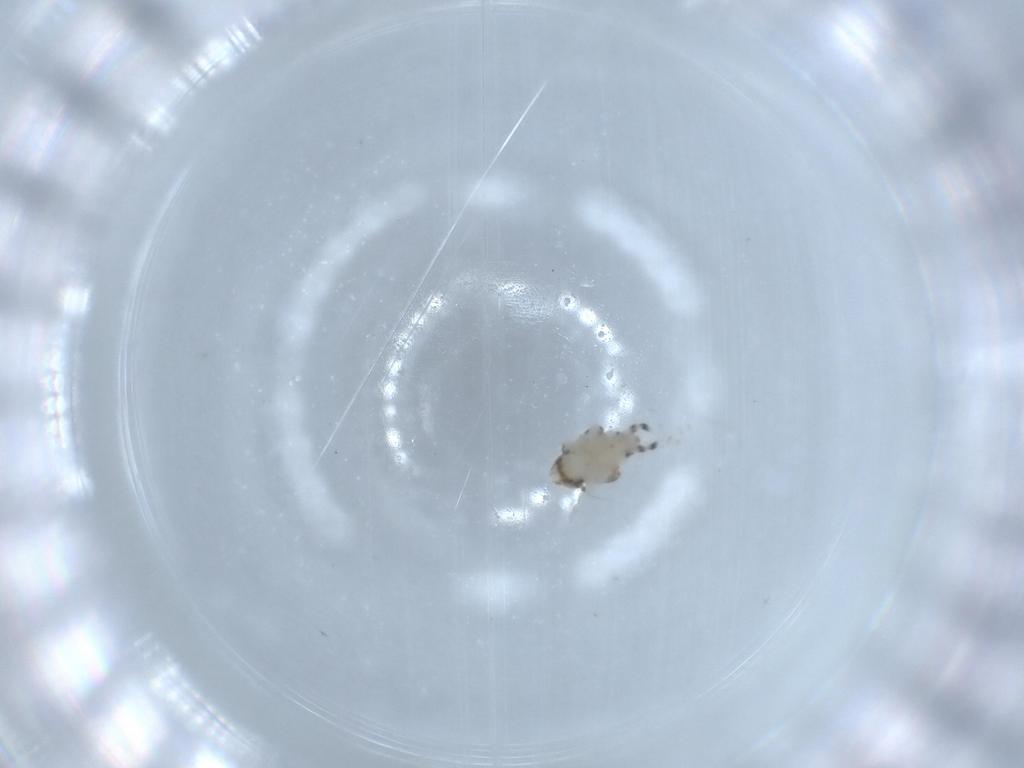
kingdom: Animalia
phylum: Arthropoda
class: Insecta
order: Hemiptera
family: Nogodinidae
